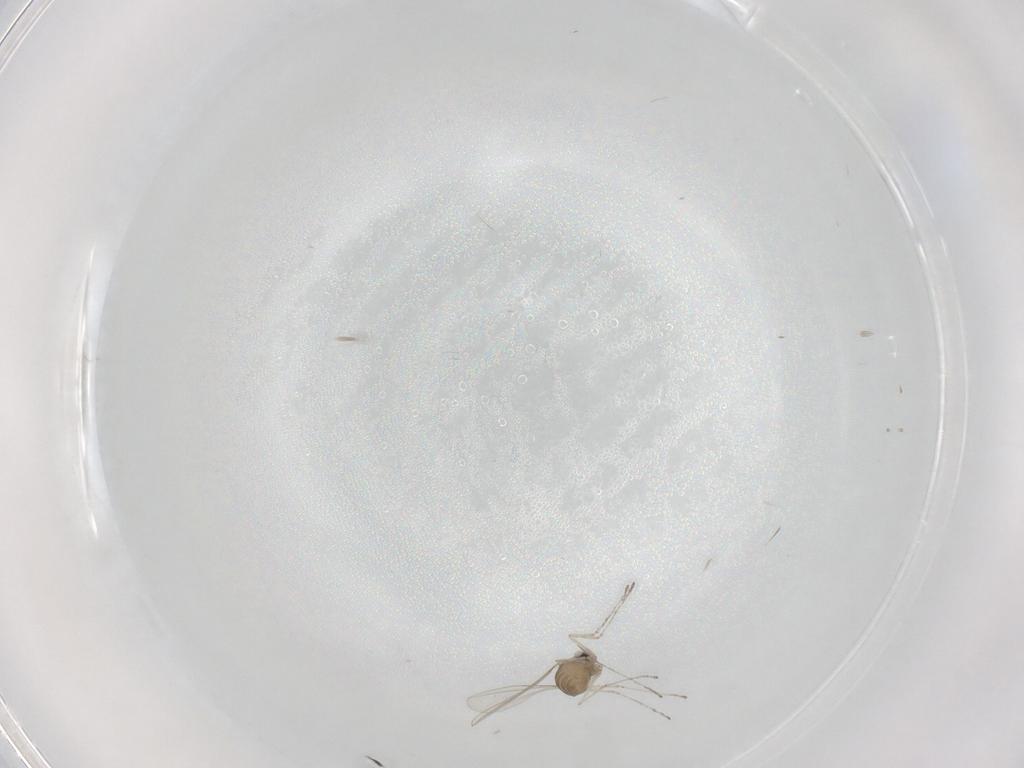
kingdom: Animalia
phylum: Arthropoda
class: Insecta
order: Diptera
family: Cecidomyiidae
